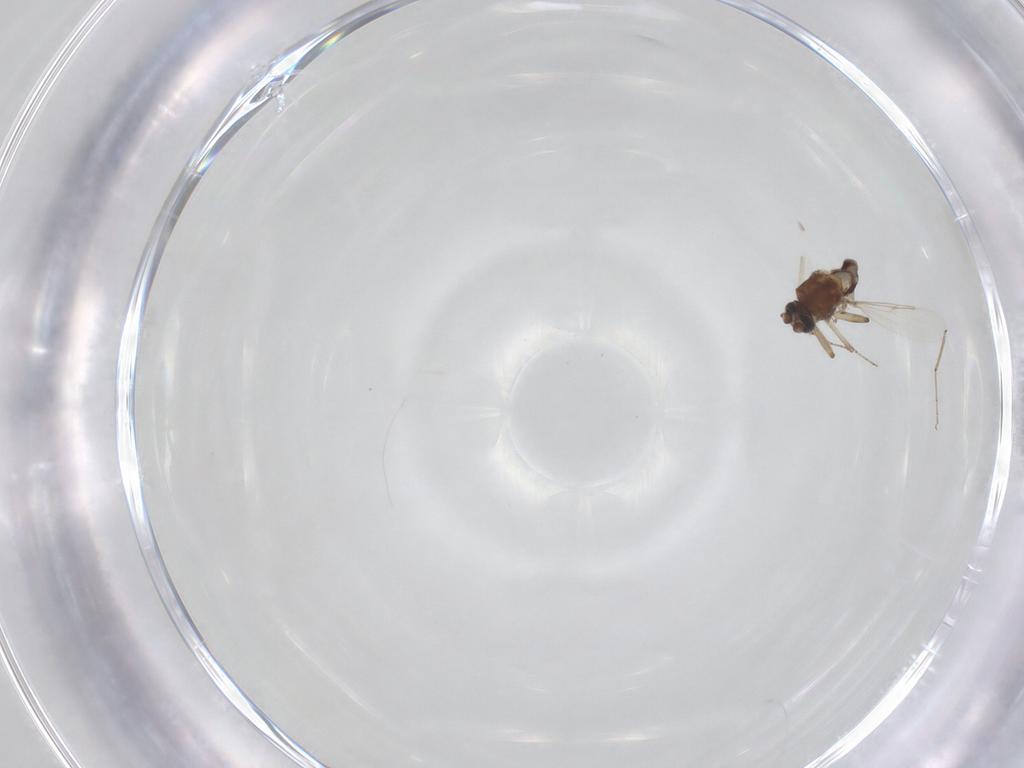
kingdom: Animalia
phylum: Arthropoda
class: Insecta
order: Diptera
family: Ceratopogonidae
